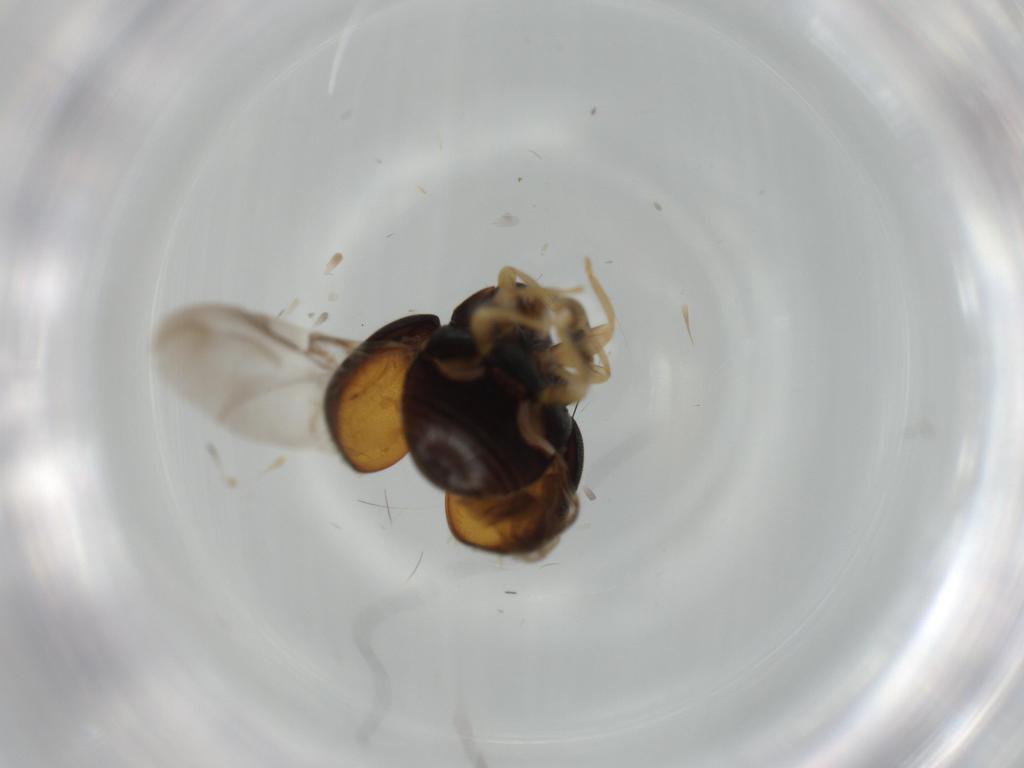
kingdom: Animalia
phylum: Arthropoda
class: Insecta
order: Coleoptera
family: Coccinellidae
